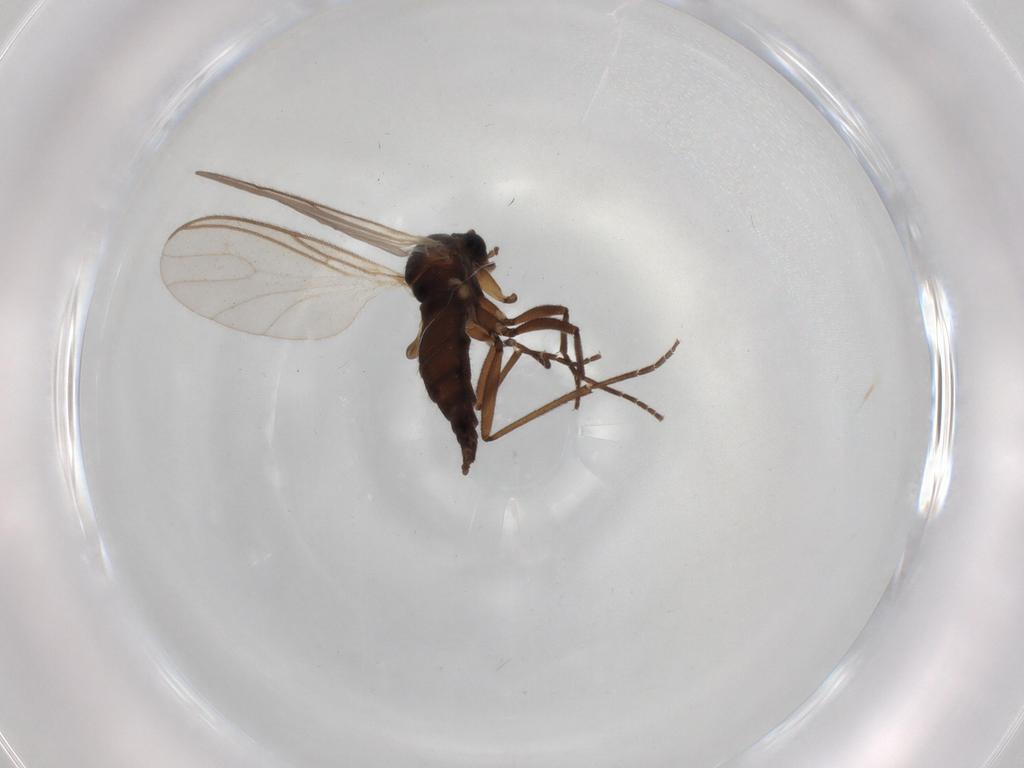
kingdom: Animalia
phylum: Arthropoda
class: Insecta
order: Diptera
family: Sciaridae
